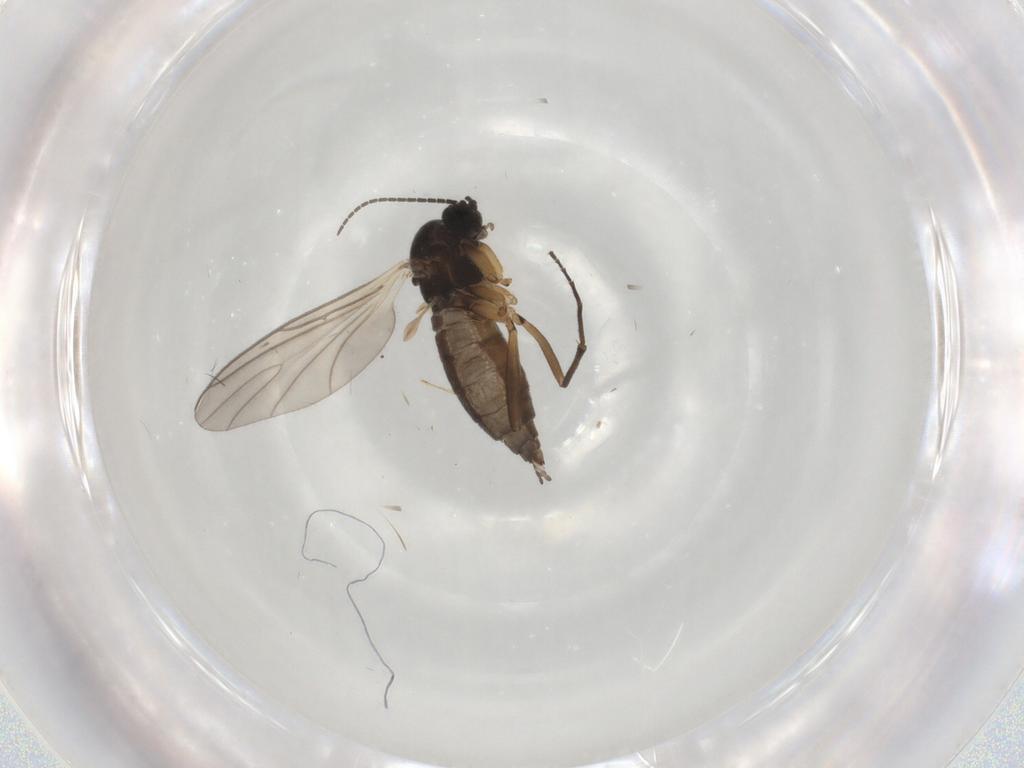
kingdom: Animalia
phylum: Arthropoda
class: Insecta
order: Diptera
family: Sciaridae
